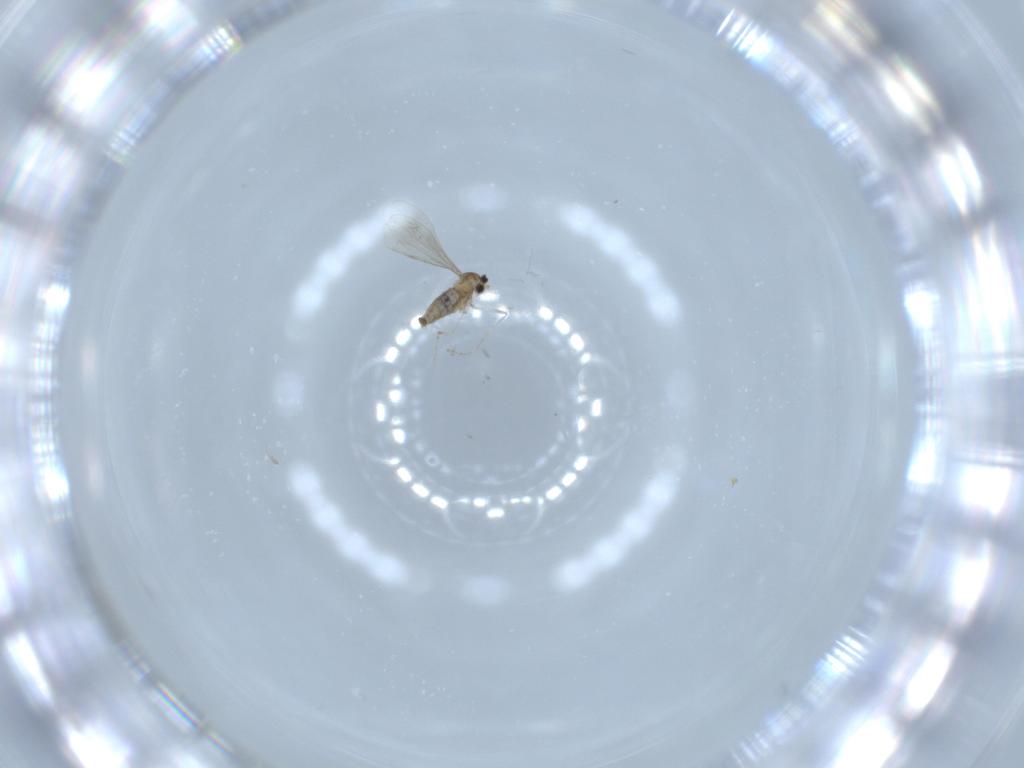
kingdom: Animalia
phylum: Arthropoda
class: Insecta
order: Diptera
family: Cecidomyiidae
